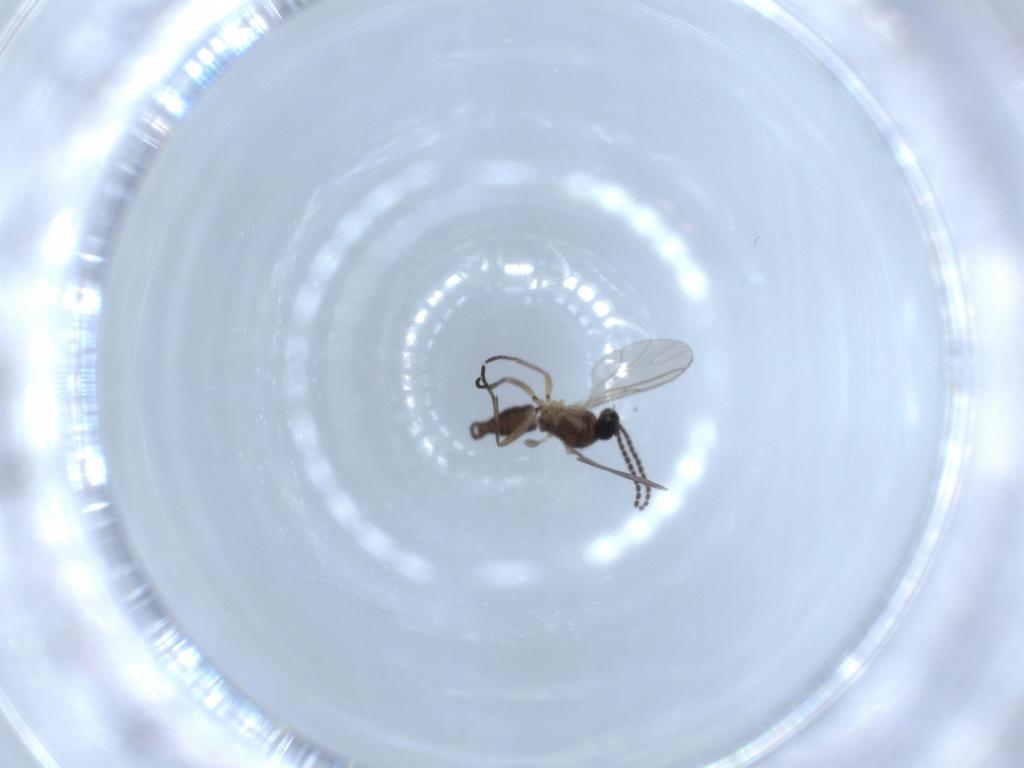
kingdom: Animalia
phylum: Arthropoda
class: Insecta
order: Diptera
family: Sciaridae
